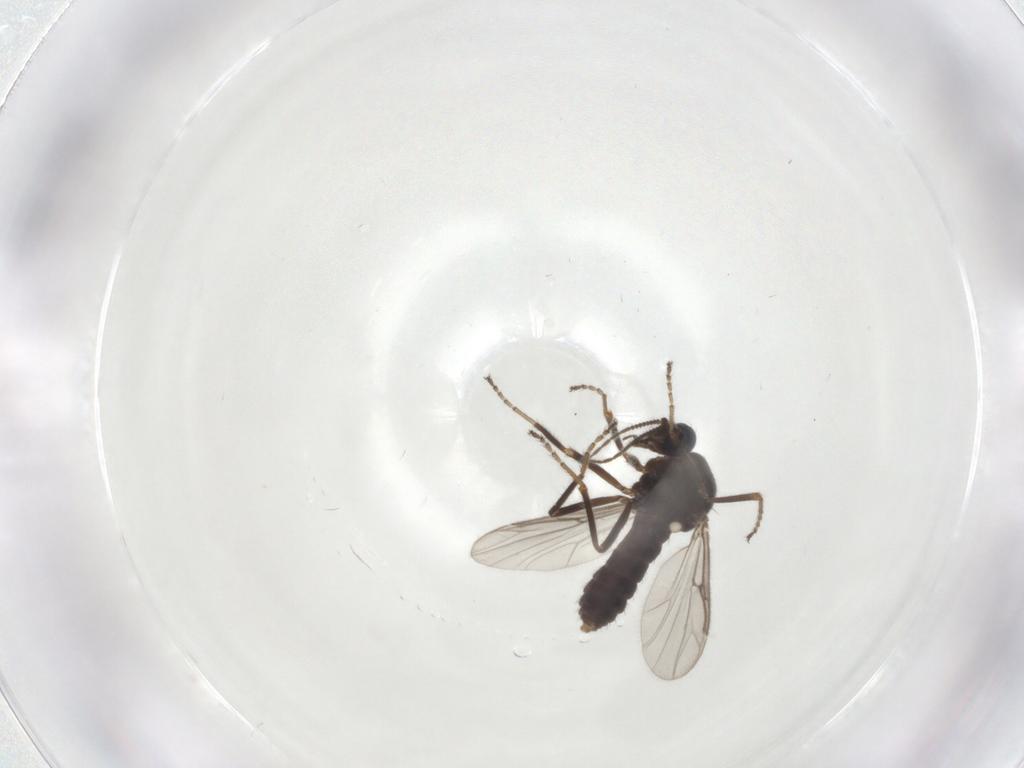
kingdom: Animalia
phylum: Arthropoda
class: Insecta
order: Diptera
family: Ceratopogonidae
